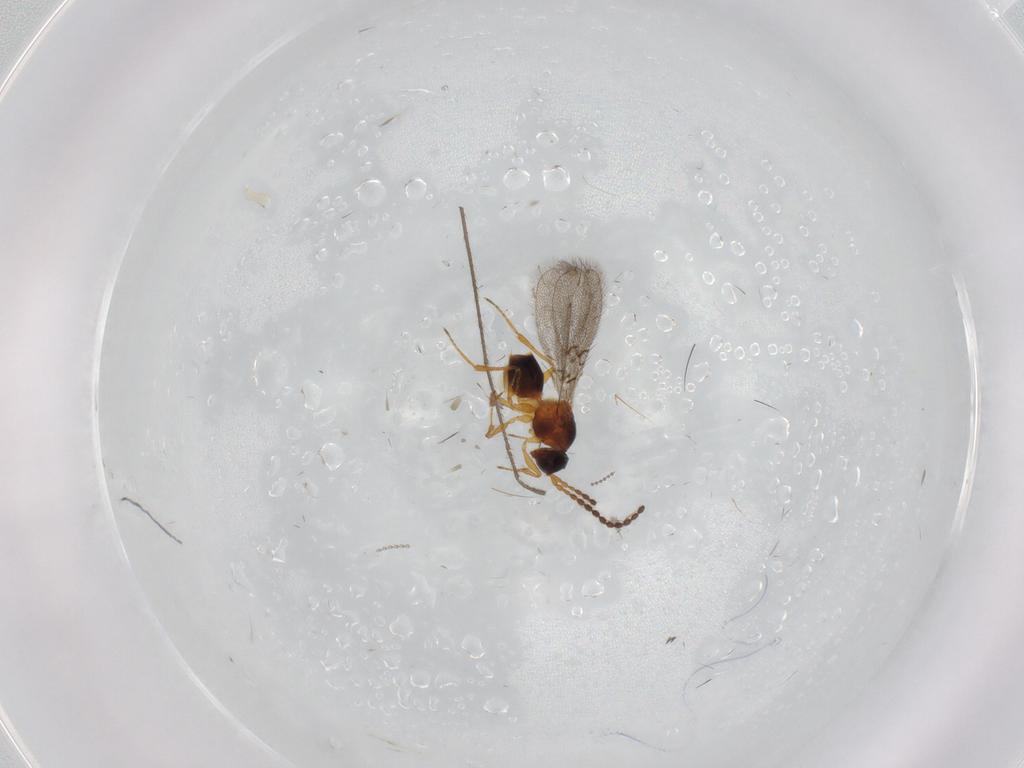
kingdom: Animalia
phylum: Arthropoda
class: Insecta
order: Hymenoptera
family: Figitidae
